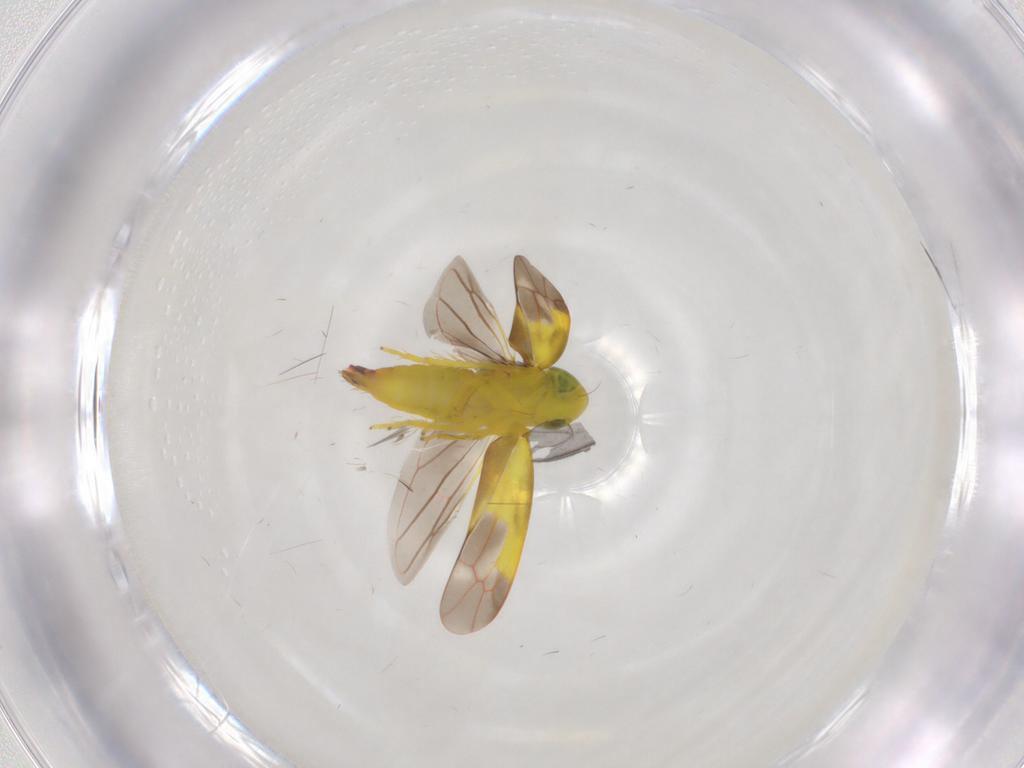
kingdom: Animalia
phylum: Arthropoda
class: Insecta
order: Hemiptera
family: Cicadellidae
